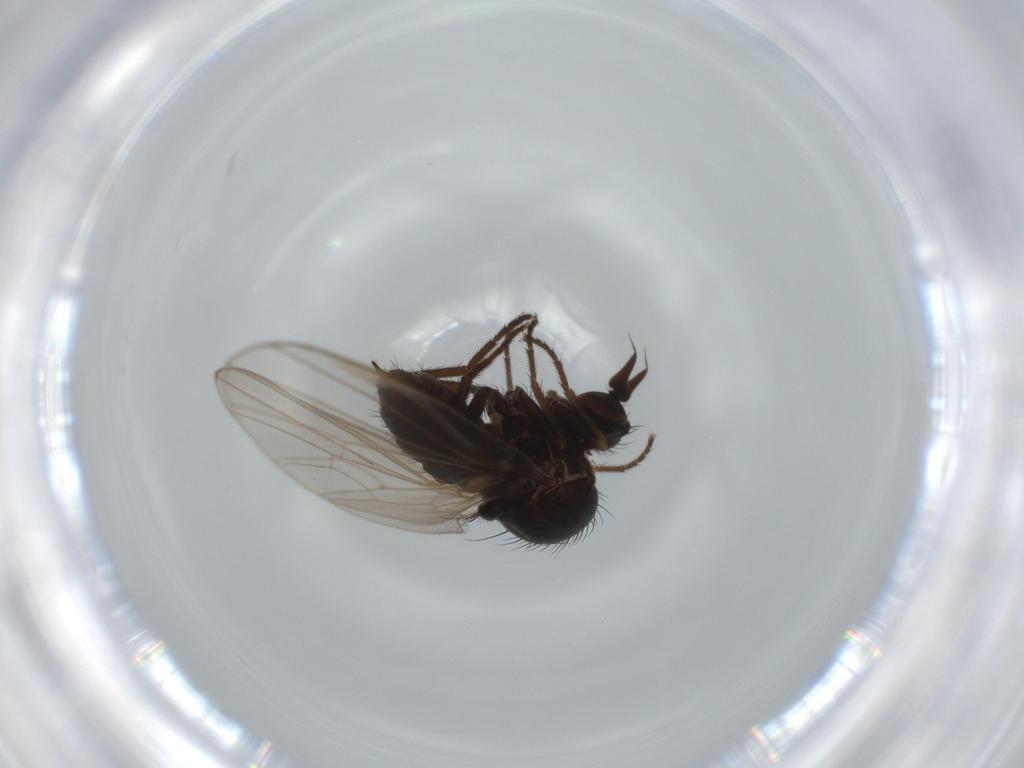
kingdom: Animalia
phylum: Arthropoda
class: Insecta
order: Diptera
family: Dolichopodidae
